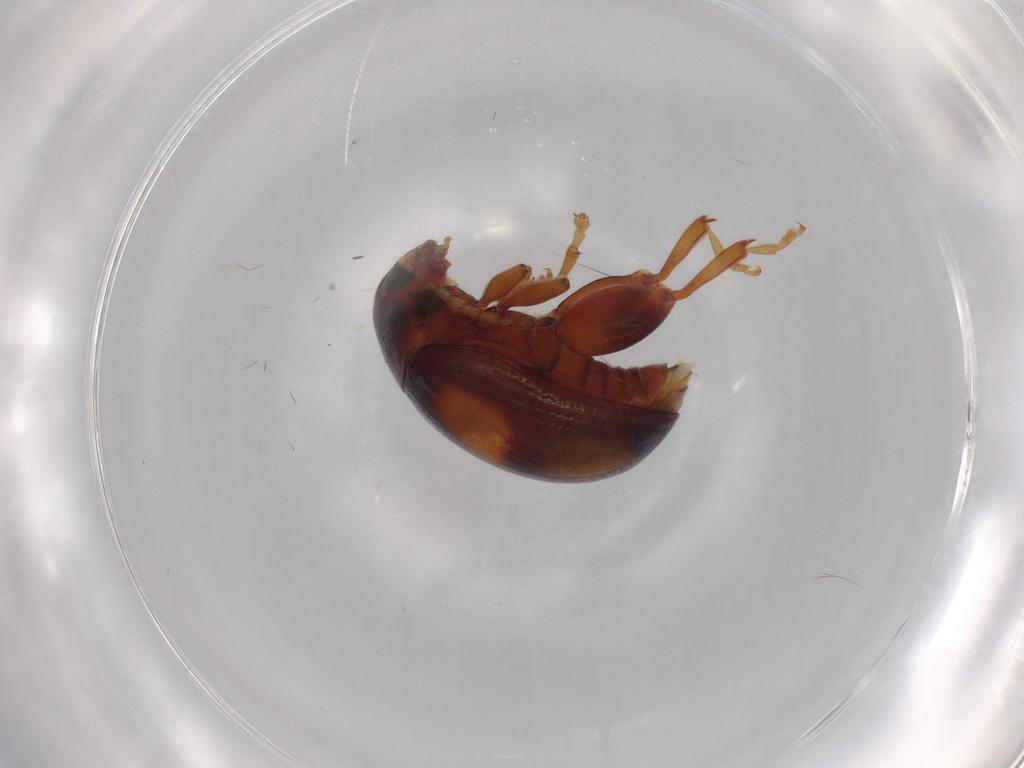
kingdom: Animalia
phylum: Arthropoda
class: Insecta
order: Coleoptera
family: Chrysomelidae
